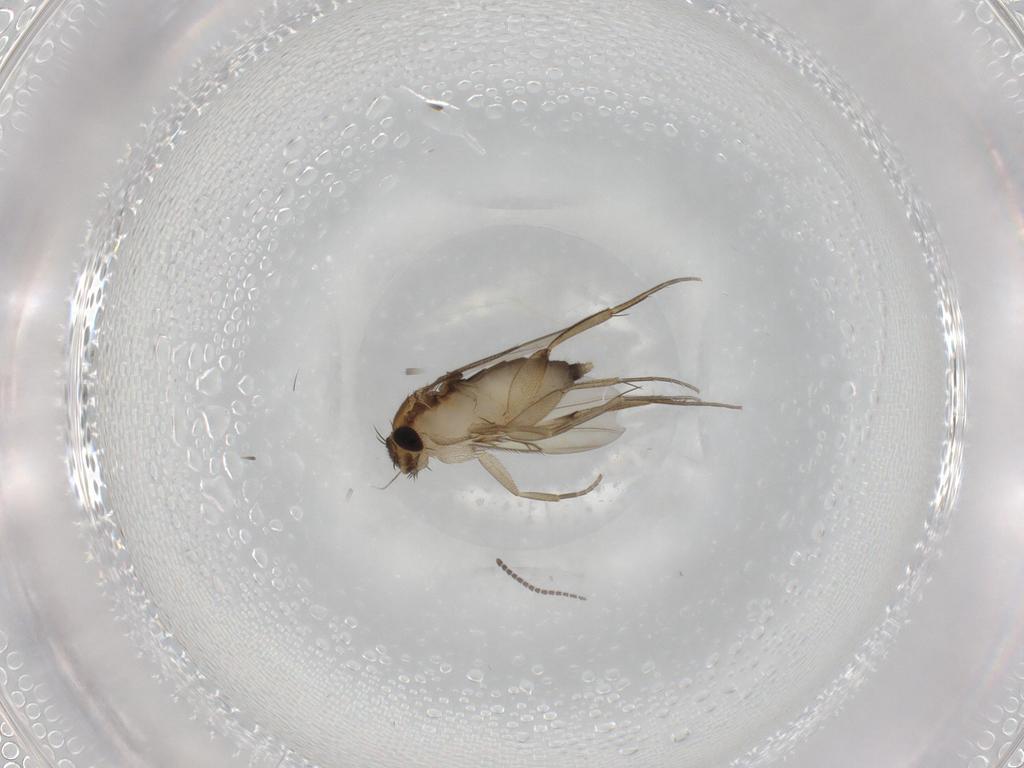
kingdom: Animalia
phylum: Arthropoda
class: Insecta
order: Diptera
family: Phoridae
